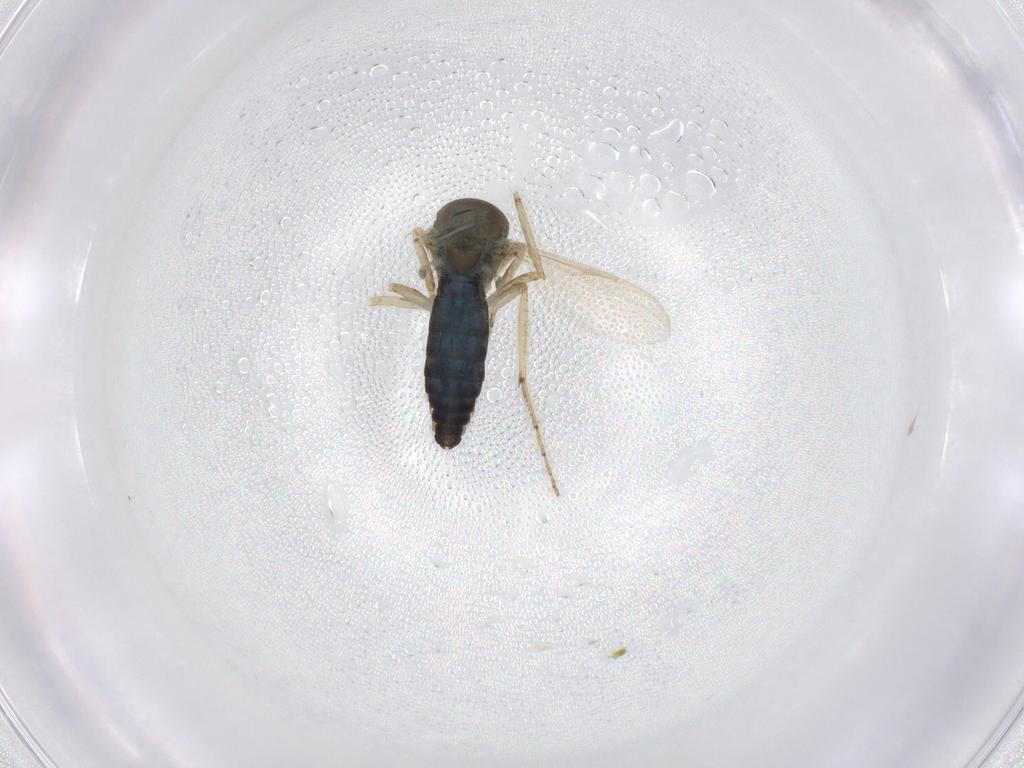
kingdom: Animalia
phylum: Arthropoda
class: Insecta
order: Diptera
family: Ceratopogonidae
